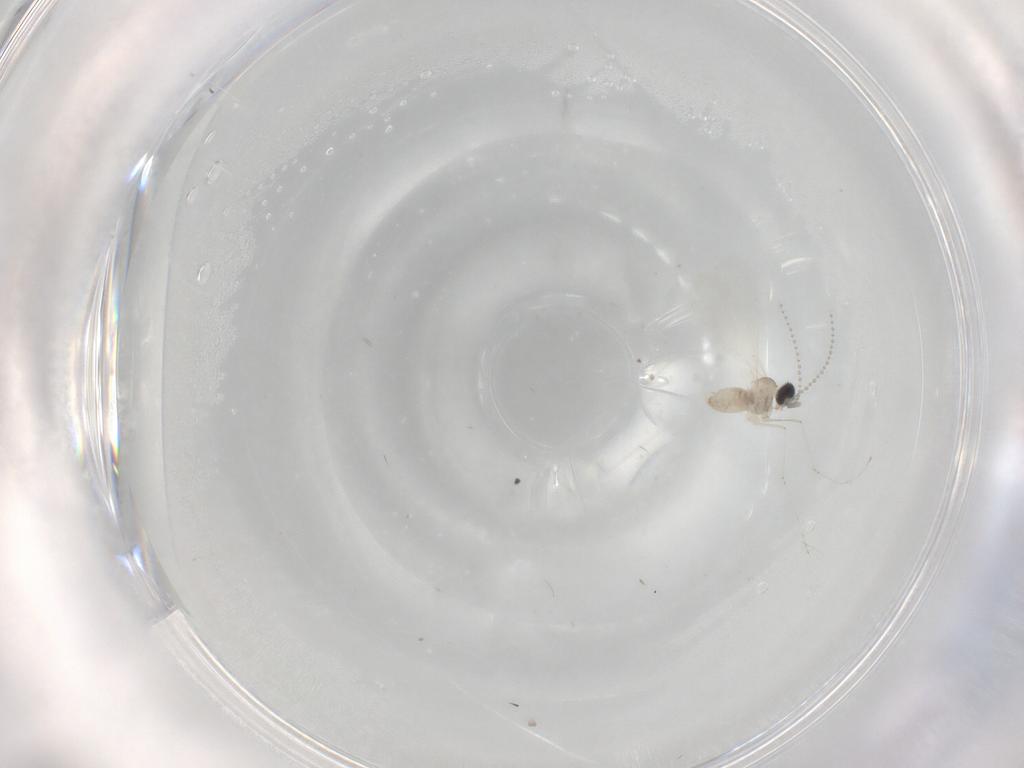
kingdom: Animalia
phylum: Arthropoda
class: Insecta
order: Diptera
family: Cecidomyiidae
